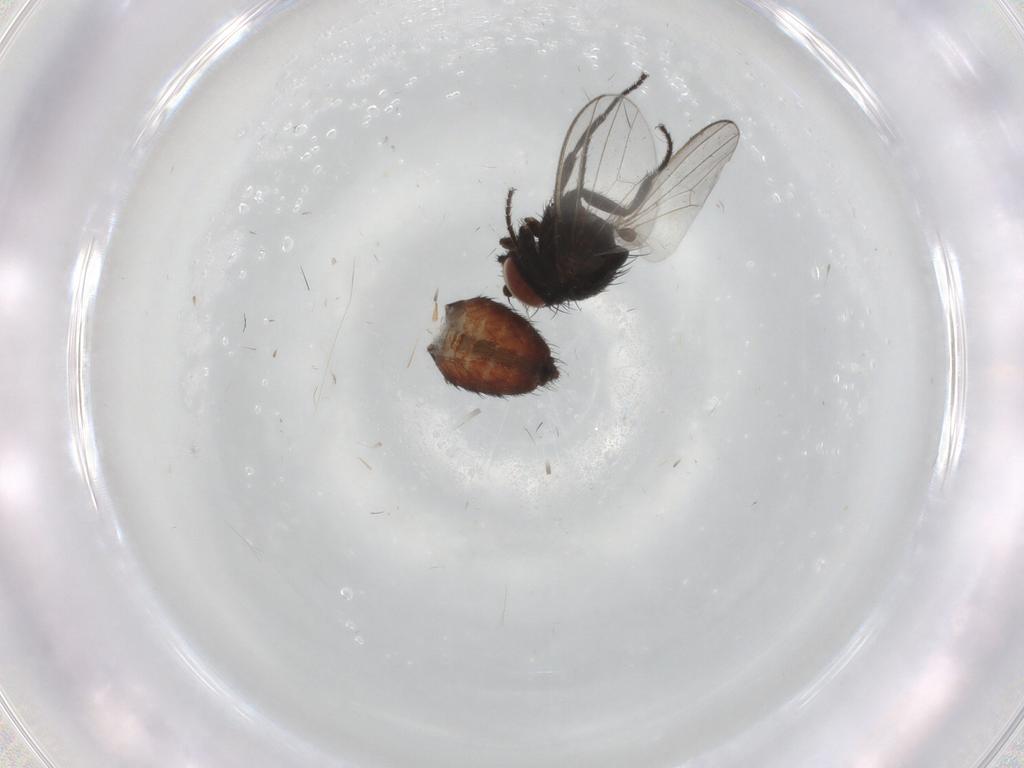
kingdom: Animalia
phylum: Arthropoda
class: Insecta
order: Diptera
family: Milichiidae
